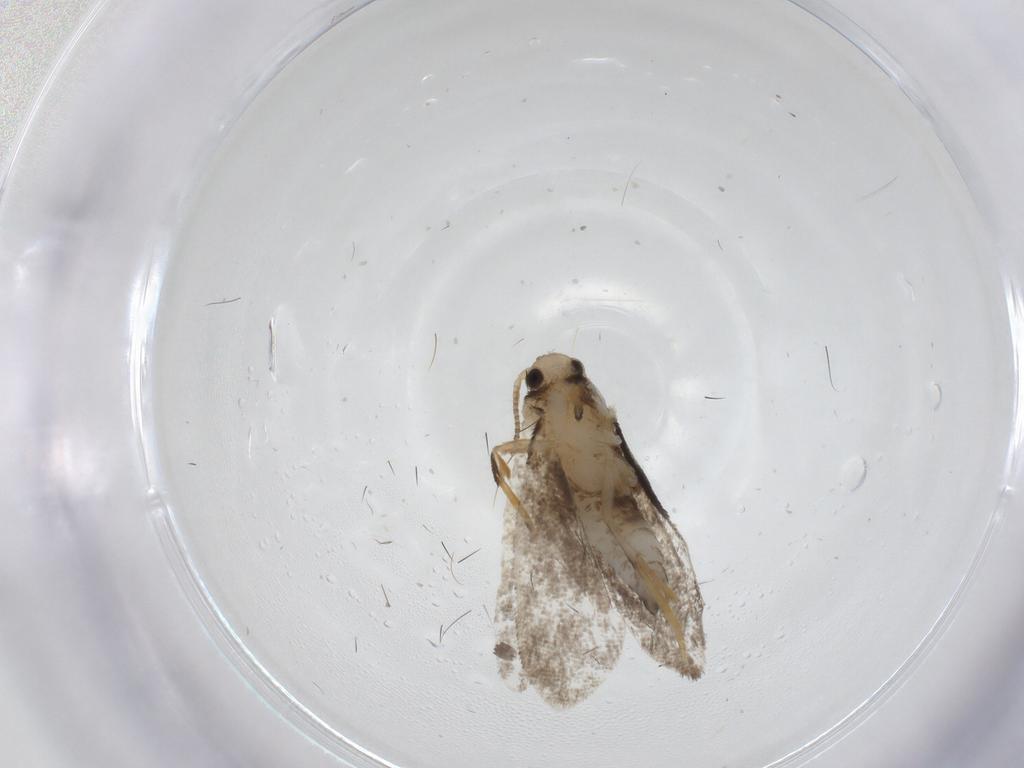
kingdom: Animalia
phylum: Arthropoda
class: Insecta
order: Lepidoptera
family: Psychidae
